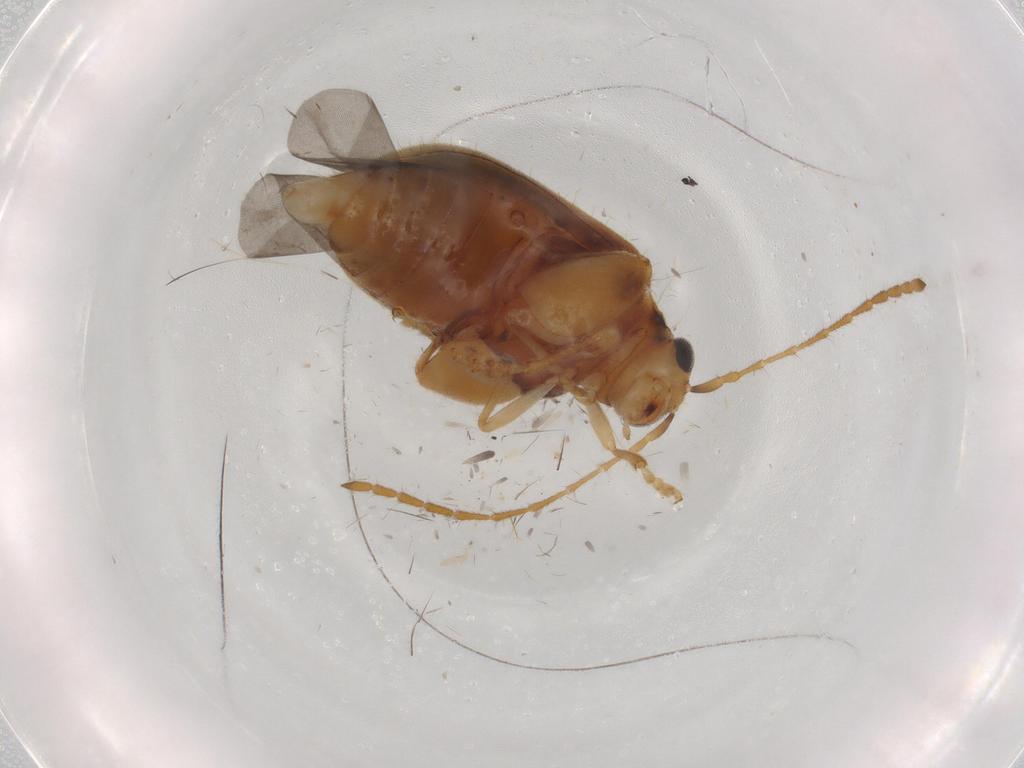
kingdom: Animalia
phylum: Arthropoda
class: Insecta
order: Coleoptera
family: Chrysomelidae
